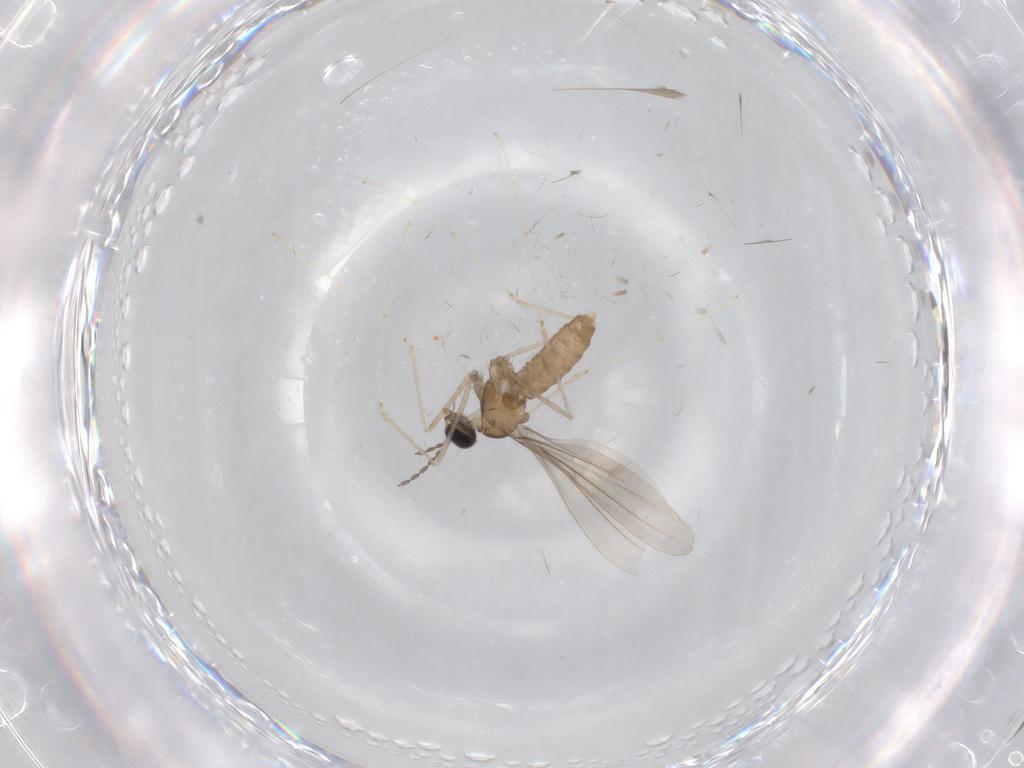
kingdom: Animalia
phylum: Arthropoda
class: Insecta
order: Diptera
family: Cecidomyiidae
